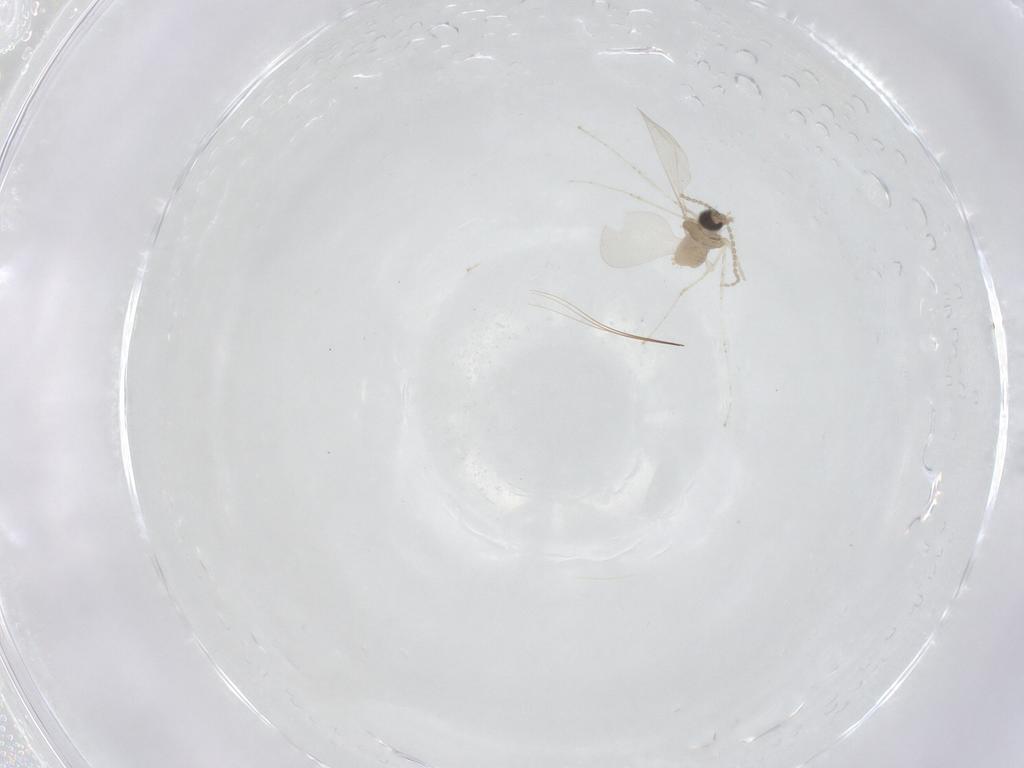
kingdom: Animalia
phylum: Arthropoda
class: Insecta
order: Diptera
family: Cecidomyiidae
